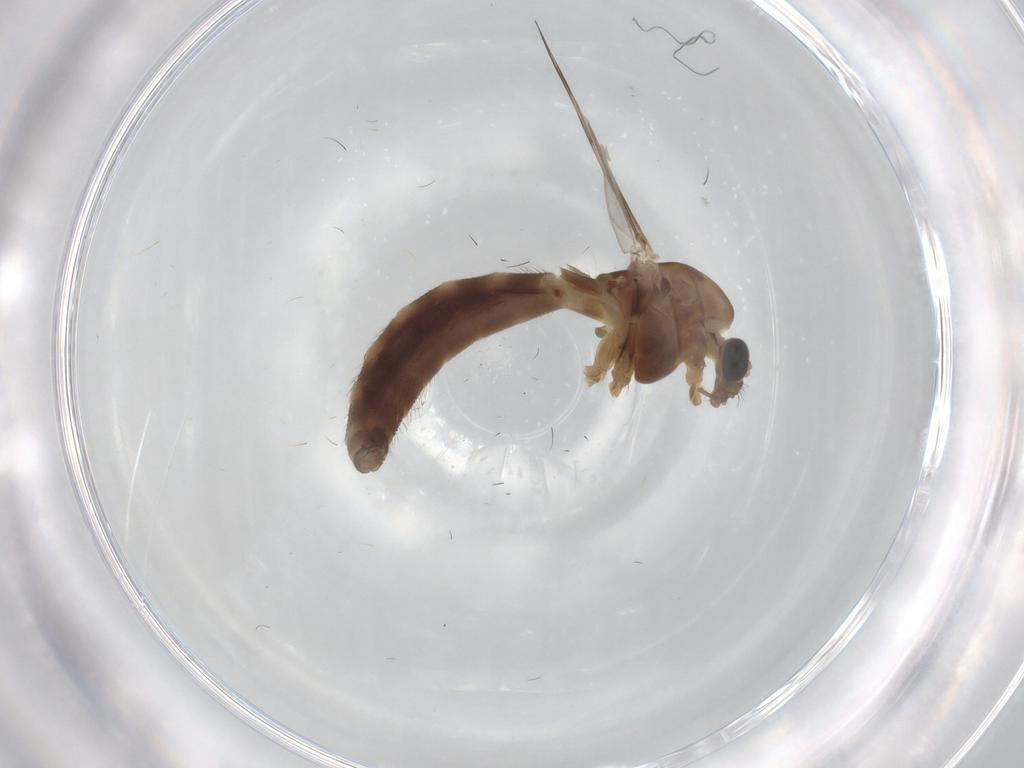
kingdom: Animalia
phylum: Arthropoda
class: Insecta
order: Diptera
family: Chironomidae
